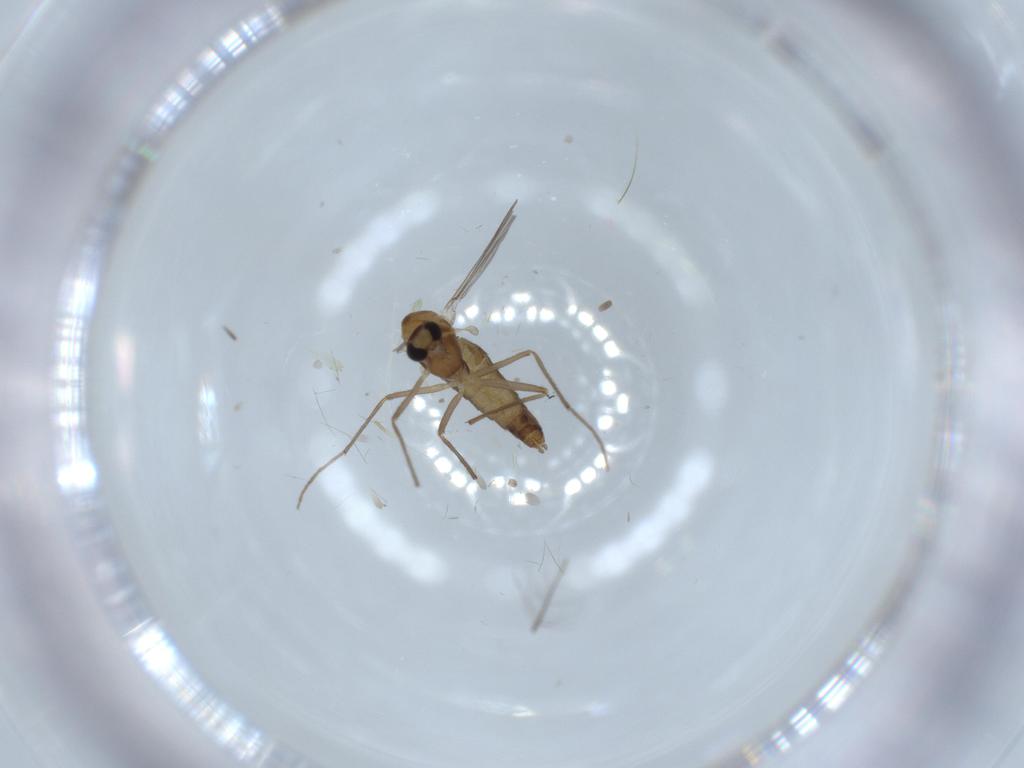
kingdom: Animalia
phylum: Arthropoda
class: Insecta
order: Diptera
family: Chironomidae
